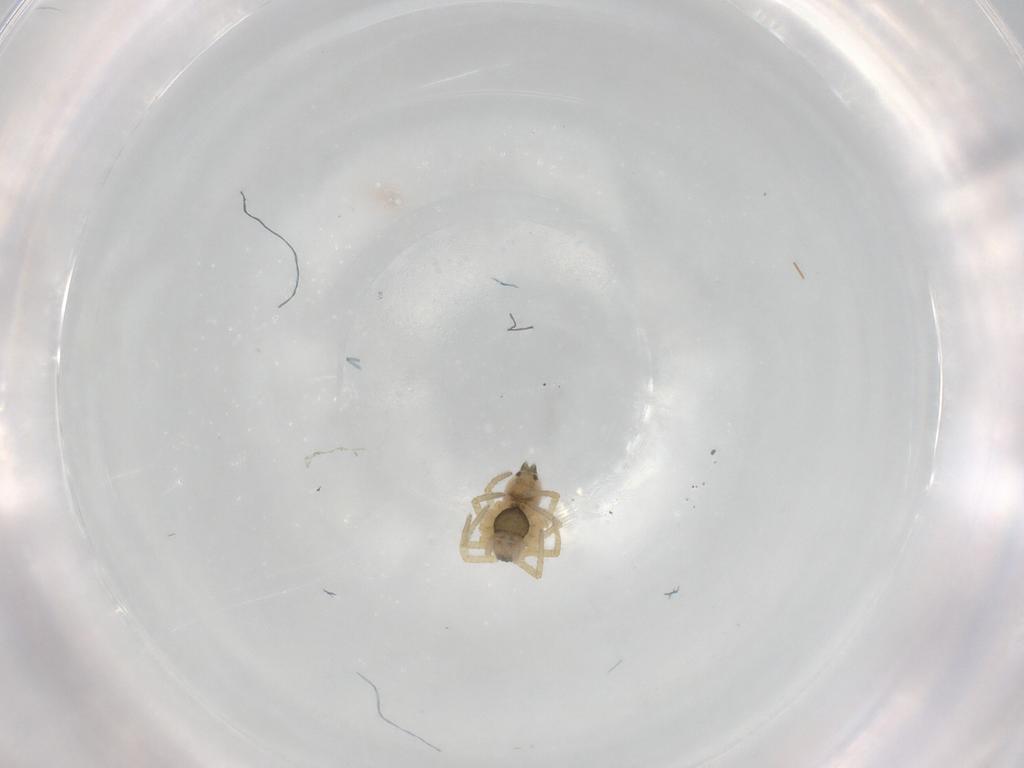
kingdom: Animalia
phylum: Arthropoda
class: Arachnida
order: Araneae
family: Linyphiidae
